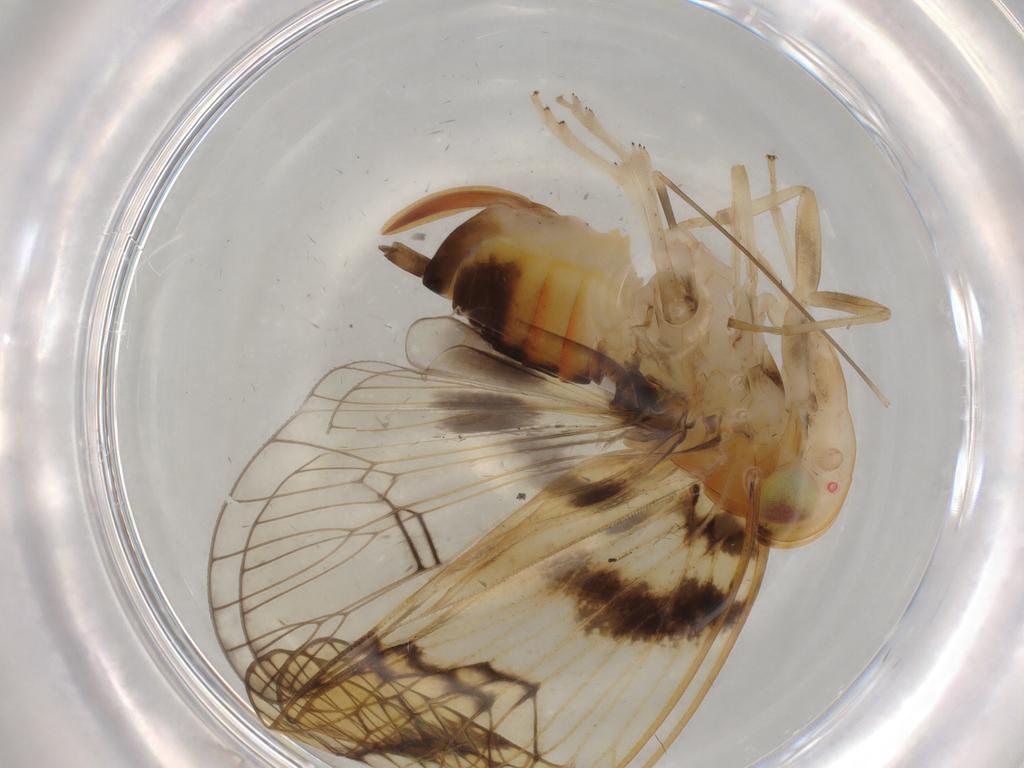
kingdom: Animalia
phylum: Arthropoda
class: Insecta
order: Hemiptera
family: Cixiidae
